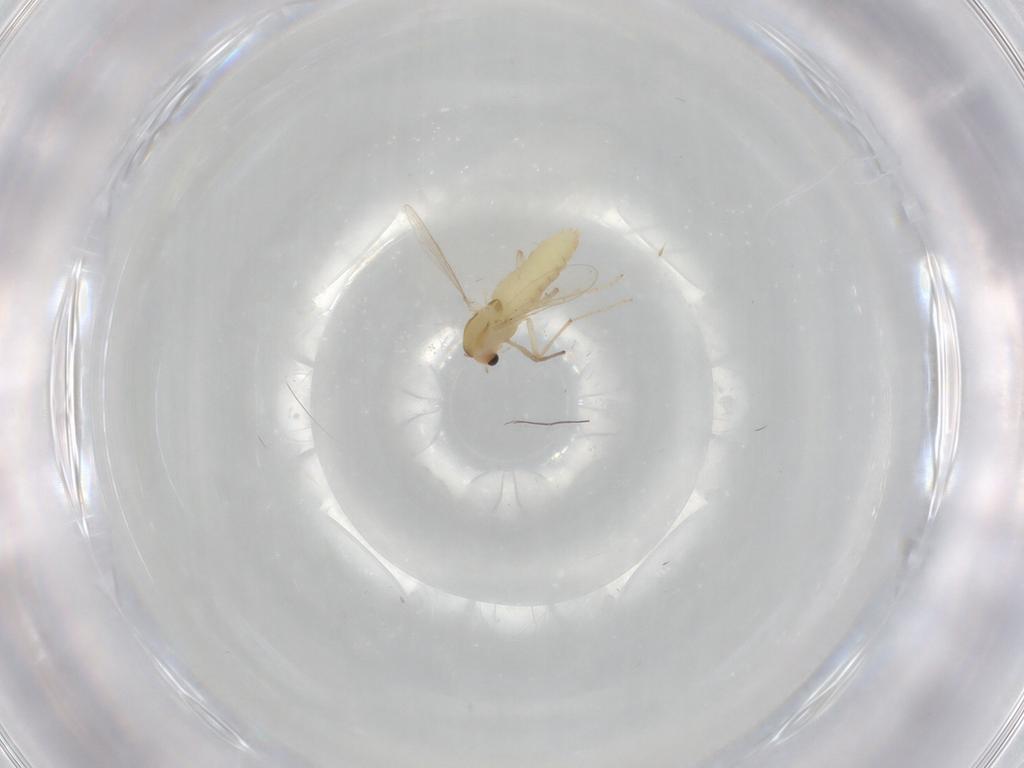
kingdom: Animalia
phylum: Arthropoda
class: Insecta
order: Diptera
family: Chironomidae
